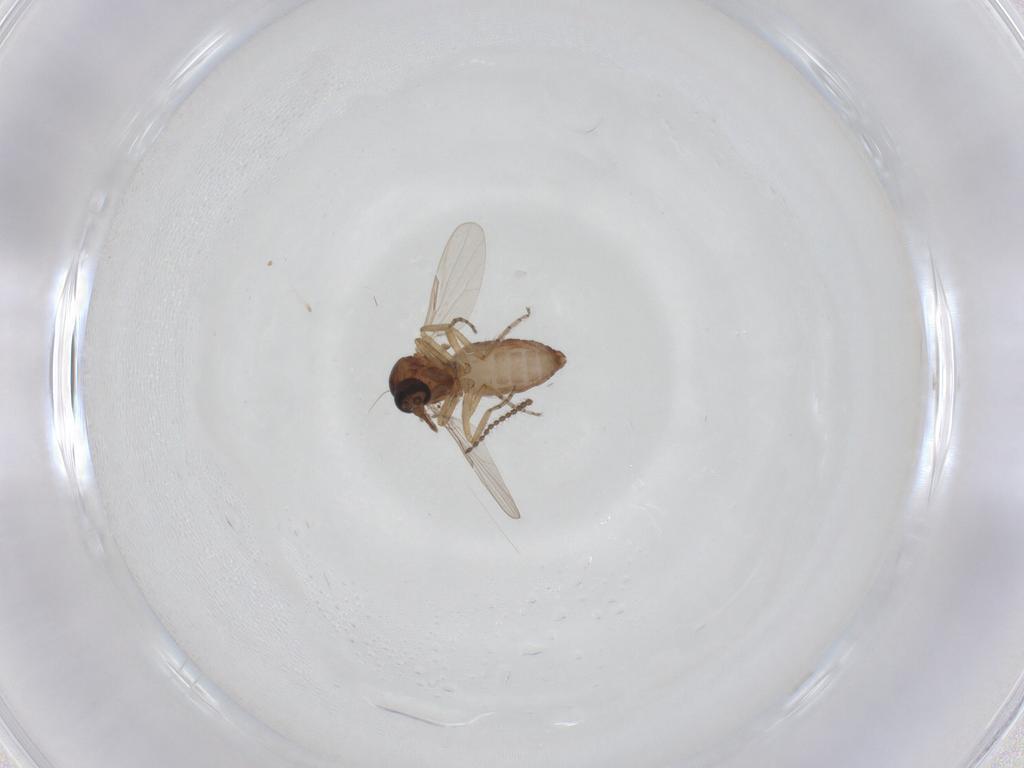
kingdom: Animalia
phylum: Arthropoda
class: Insecta
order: Diptera
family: Ceratopogonidae
